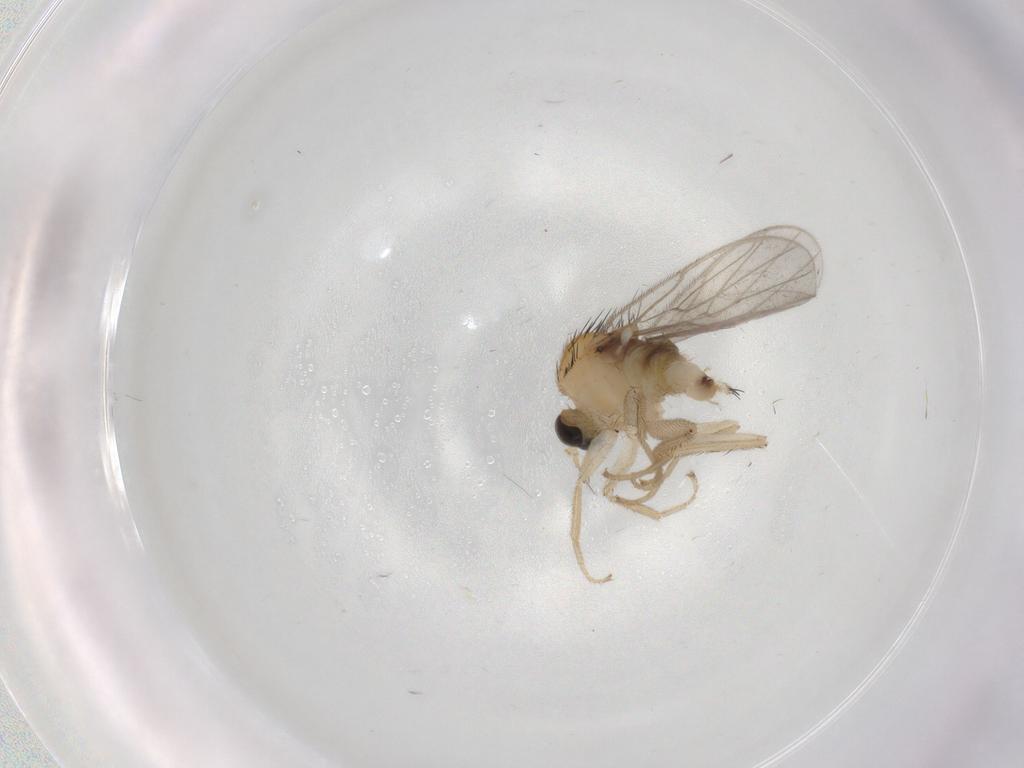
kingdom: Animalia
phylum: Arthropoda
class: Insecta
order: Diptera
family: Hybotidae
